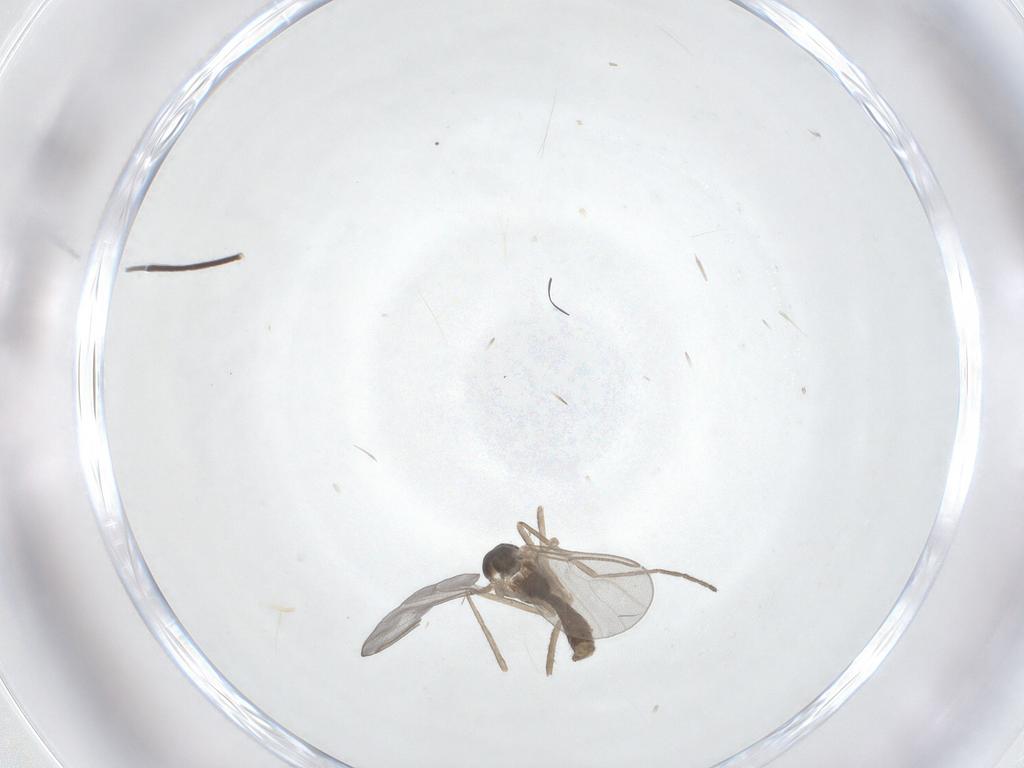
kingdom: Animalia
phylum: Arthropoda
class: Insecta
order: Diptera
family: Cecidomyiidae
